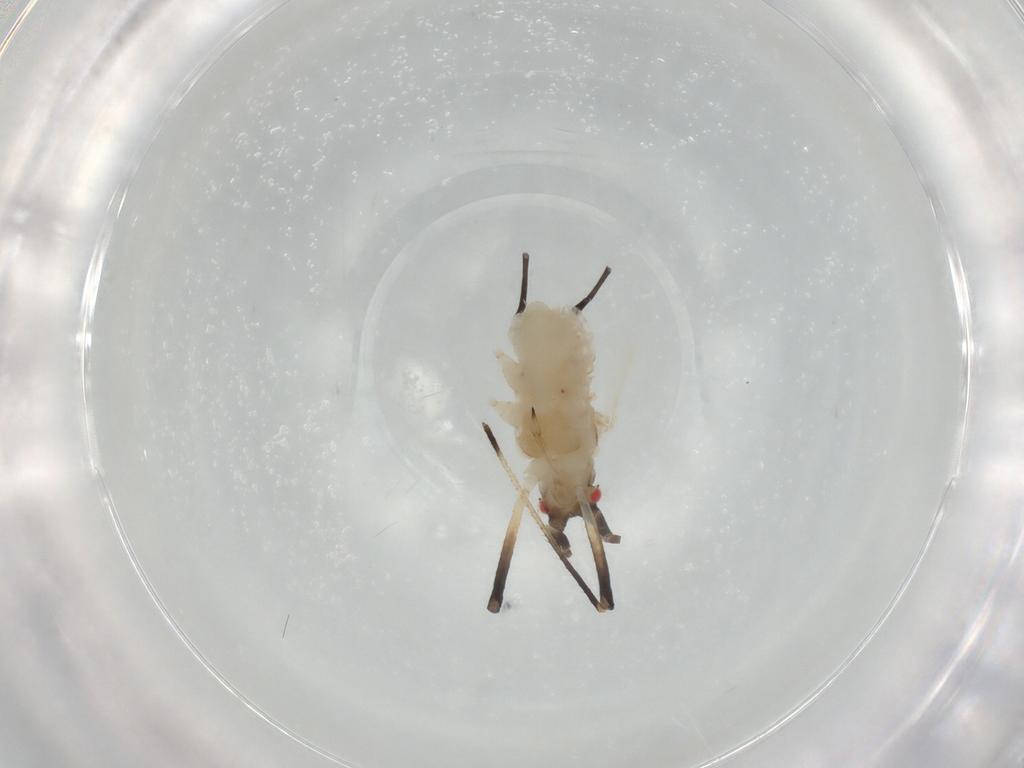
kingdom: Animalia
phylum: Arthropoda
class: Insecta
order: Hemiptera
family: Aphididae
